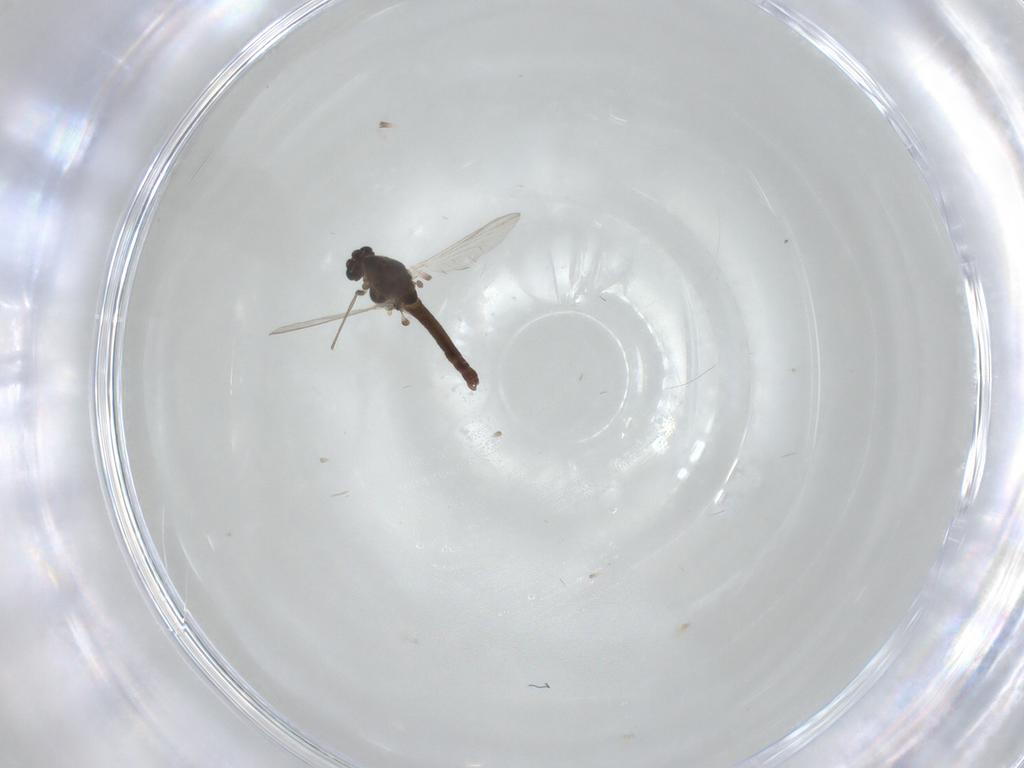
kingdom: Animalia
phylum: Arthropoda
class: Insecta
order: Diptera
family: Chironomidae
